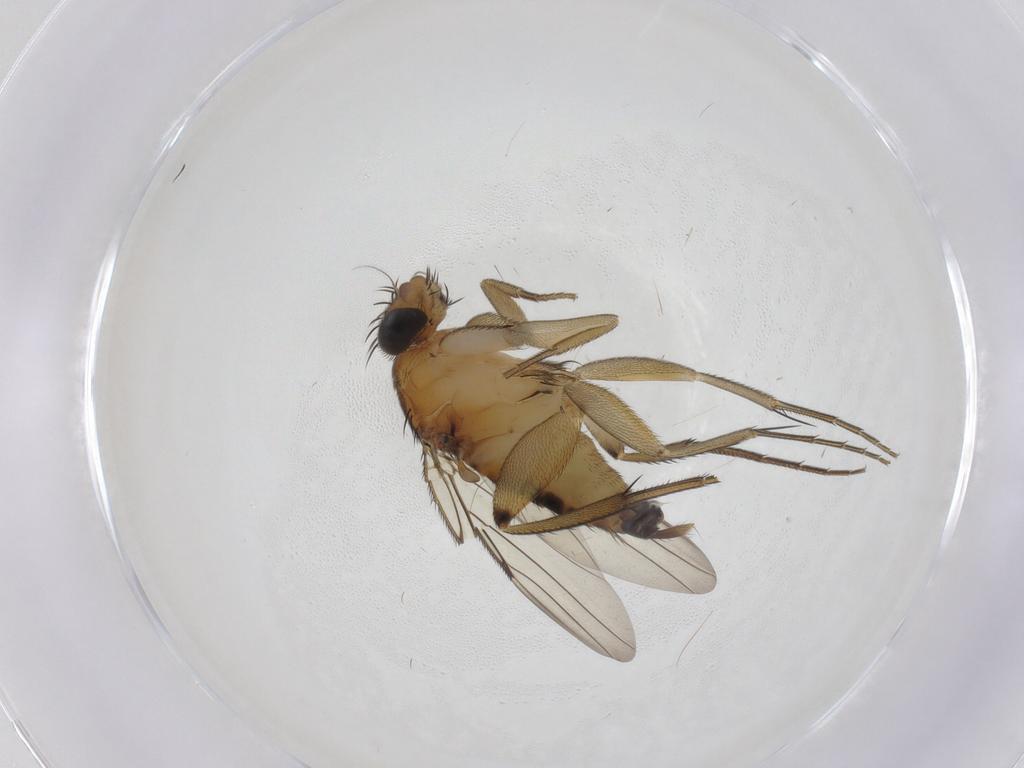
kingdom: Animalia
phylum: Arthropoda
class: Insecta
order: Diptera
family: Phoridae
